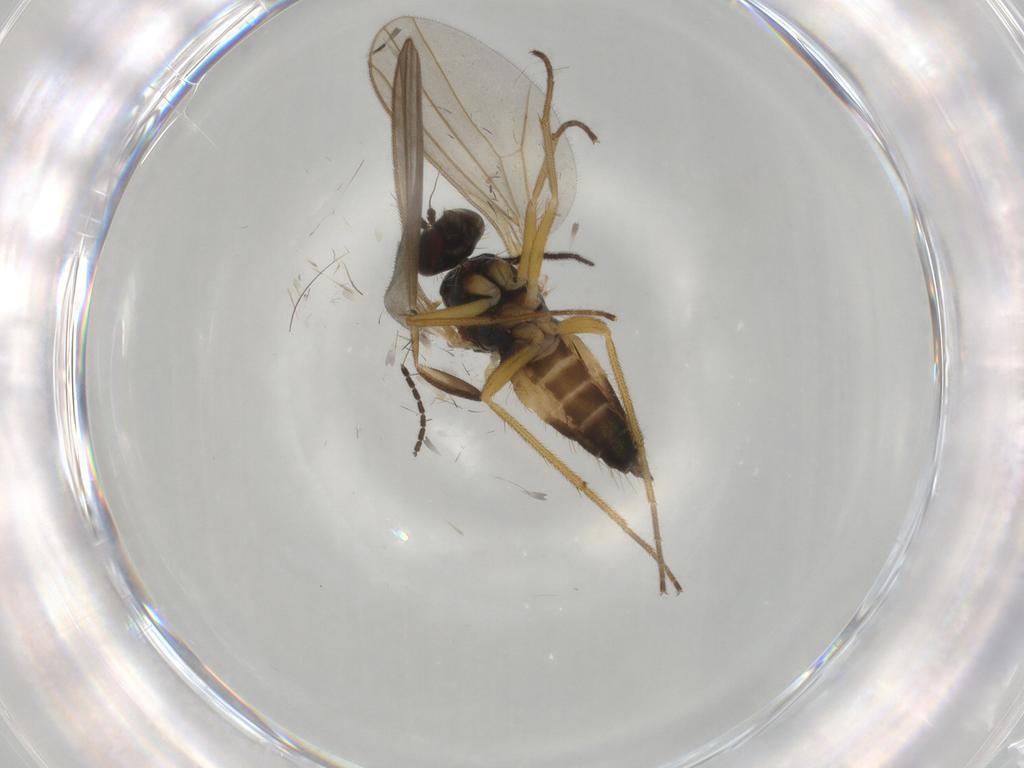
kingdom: Animalia
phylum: Arthropoda
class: Insecta
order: Diptera
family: Dolichopodidae
